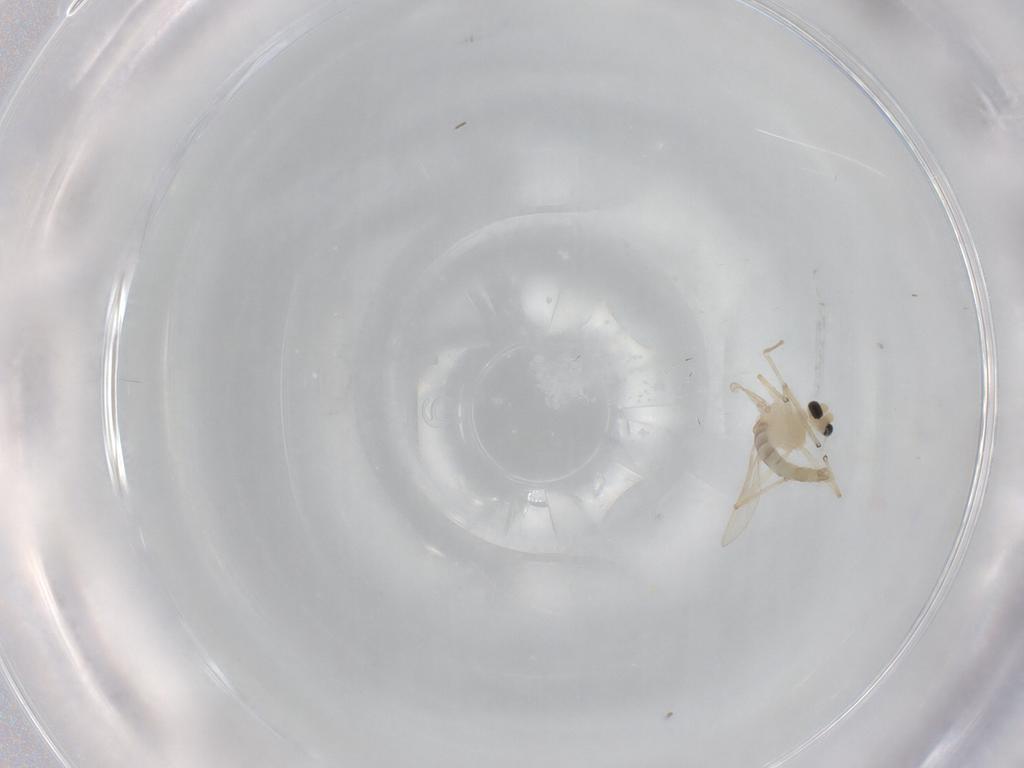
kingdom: Animalia
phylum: Arthropoda
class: Insecta
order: Diptera
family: Chironomidae
